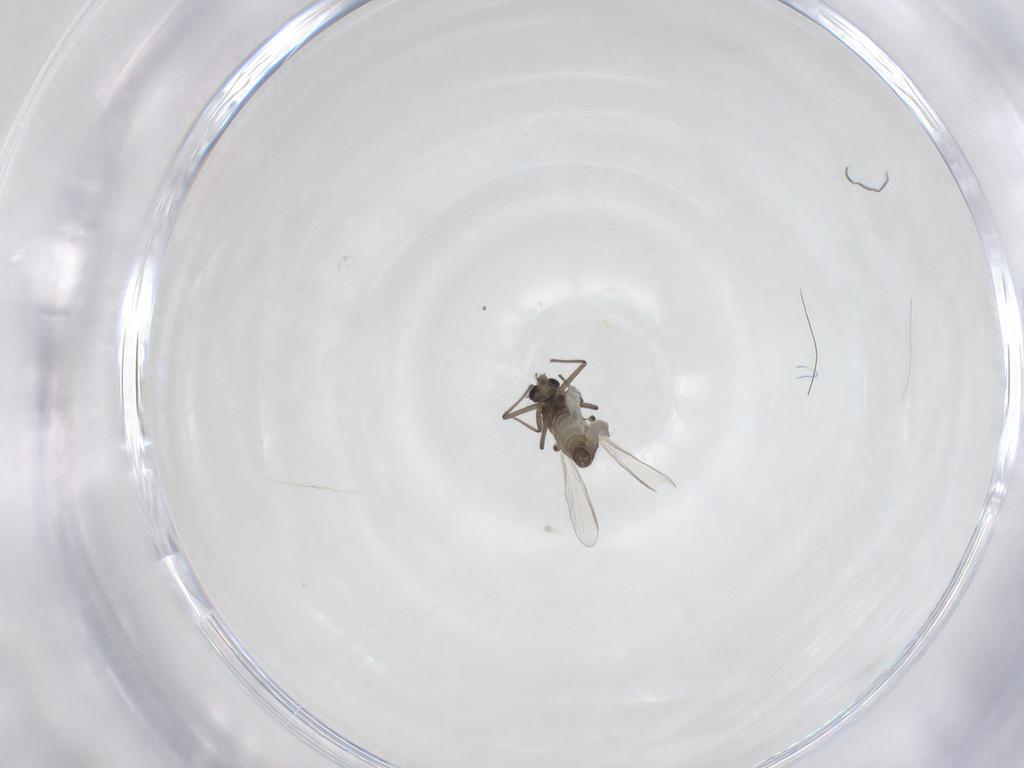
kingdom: Animalia
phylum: Arthropoda
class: Insecta
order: Diptera
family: Chironomidae
